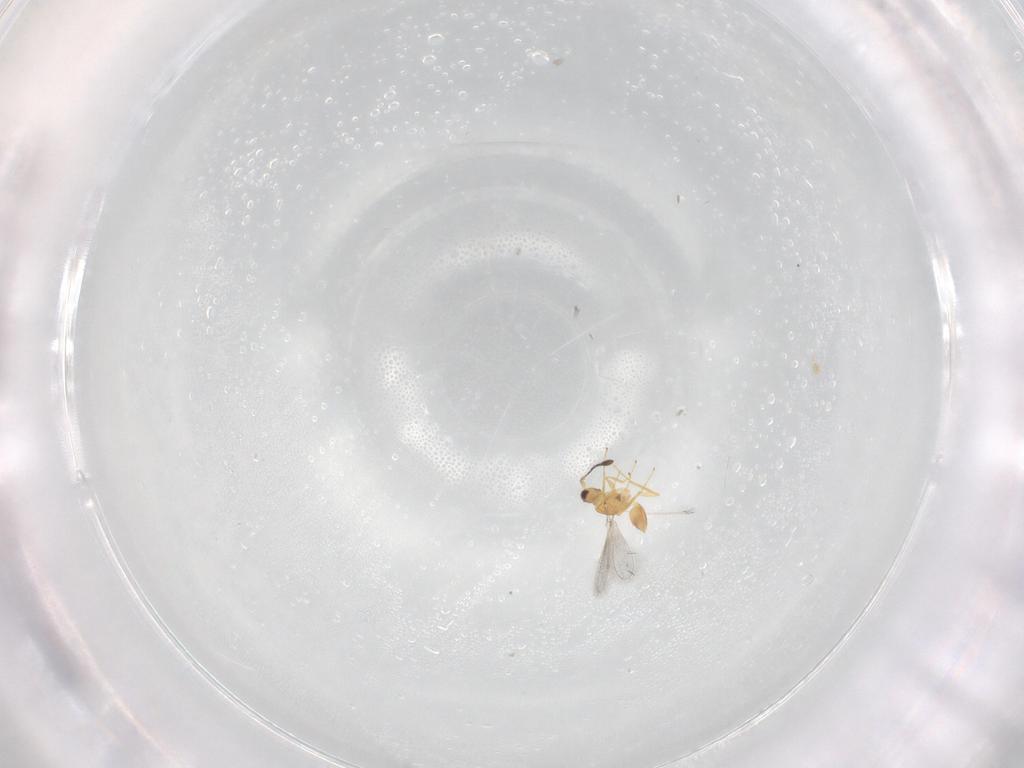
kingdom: Animalia
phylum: Arthropoda
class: Insecta
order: Hymenoptera
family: Mymaridae
